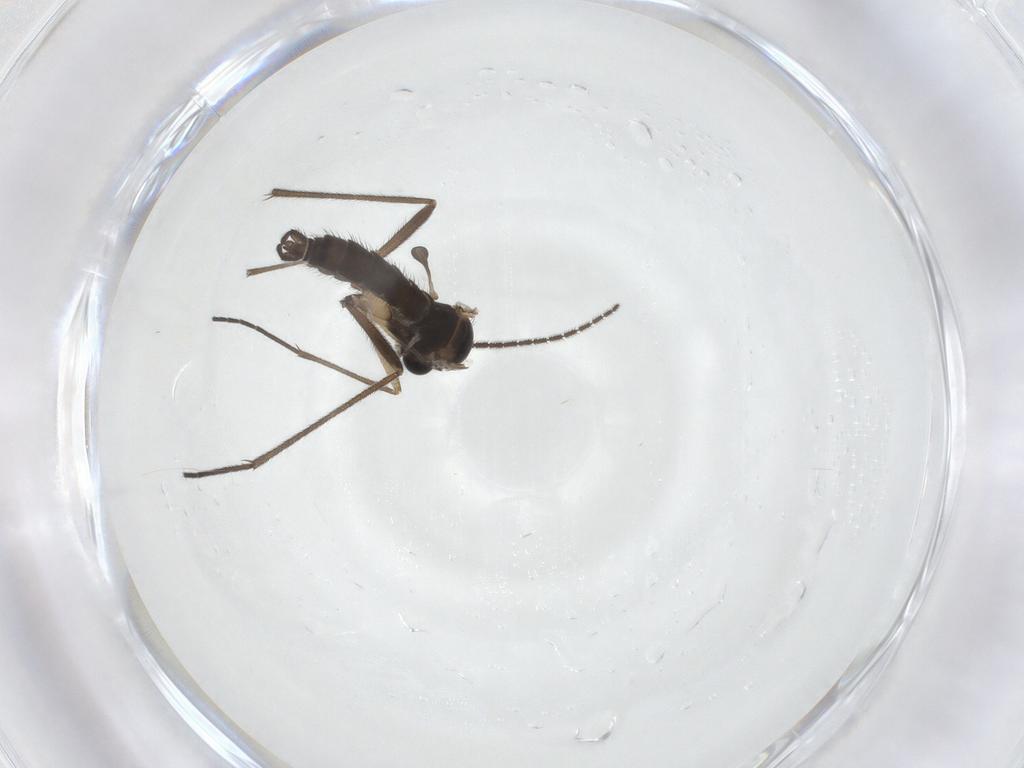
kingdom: Animalia
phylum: Arthropoda
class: Insecta
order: Diptera
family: Sciaridae
